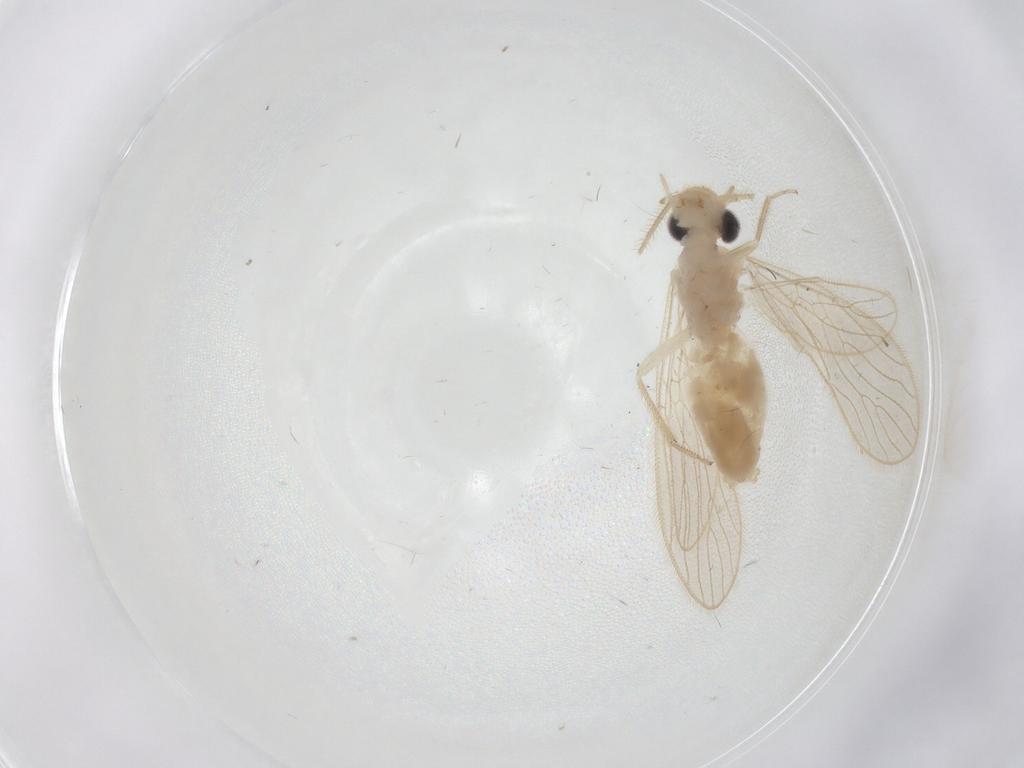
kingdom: Animalia
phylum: Arthropoda
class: Insecta
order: Psocodea
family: Cladiopsocidae
